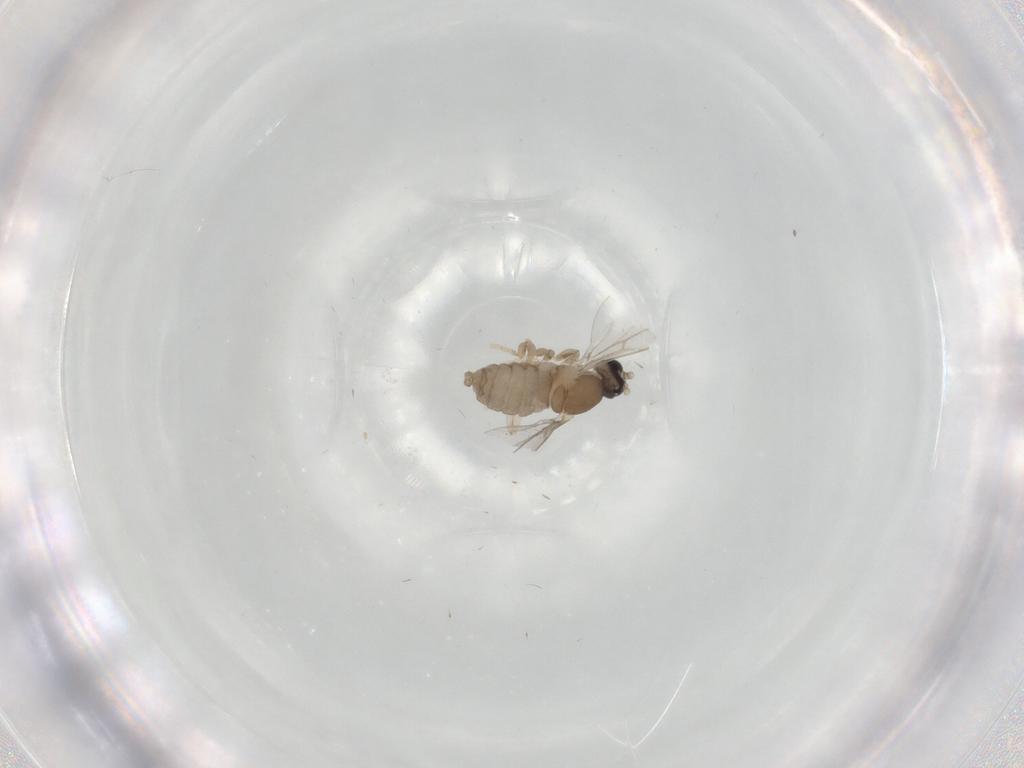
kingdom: Animalia
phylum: Arthropoda
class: Insecta
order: Diptera
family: Cecidomyiidae
